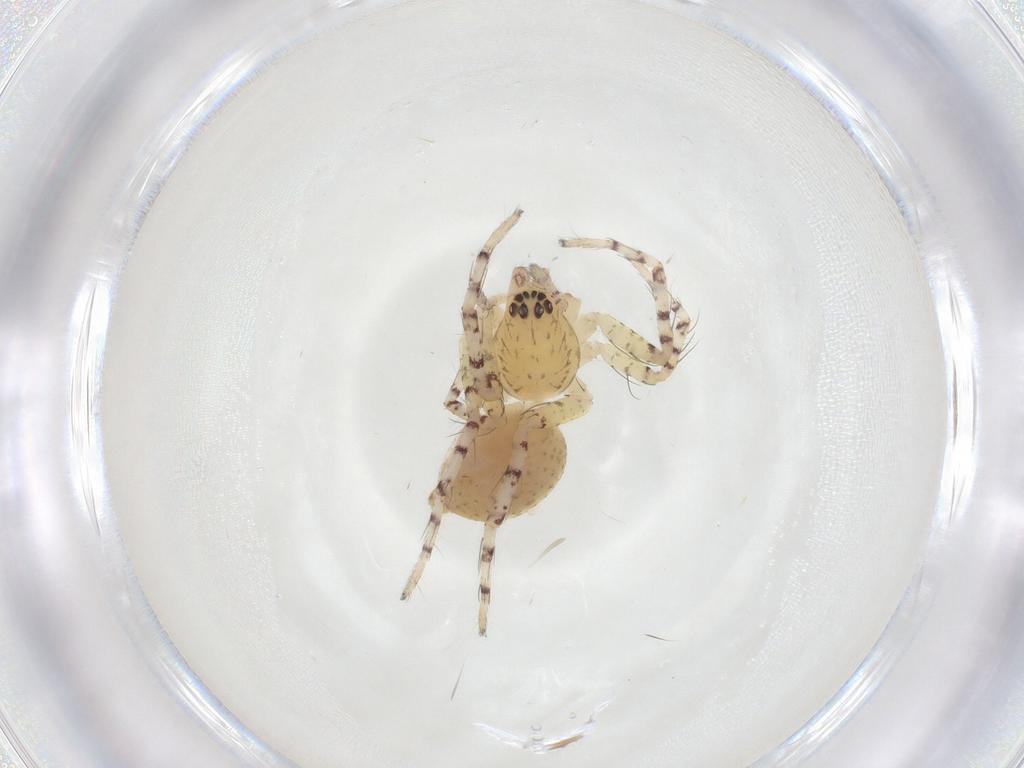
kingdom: Animalia
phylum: Arthropoda
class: Arachnida
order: Araneae
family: Anyphaenidae
